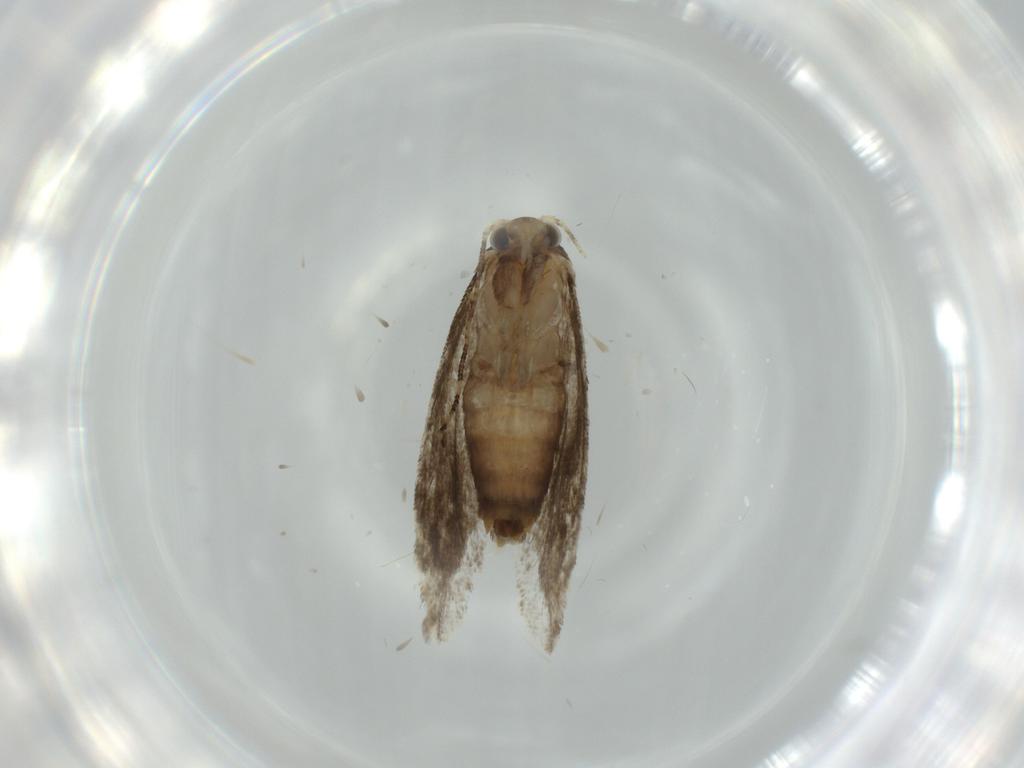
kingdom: Animalia
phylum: Arthropoda
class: Insecta
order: Lepidoptera
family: Tineidae
